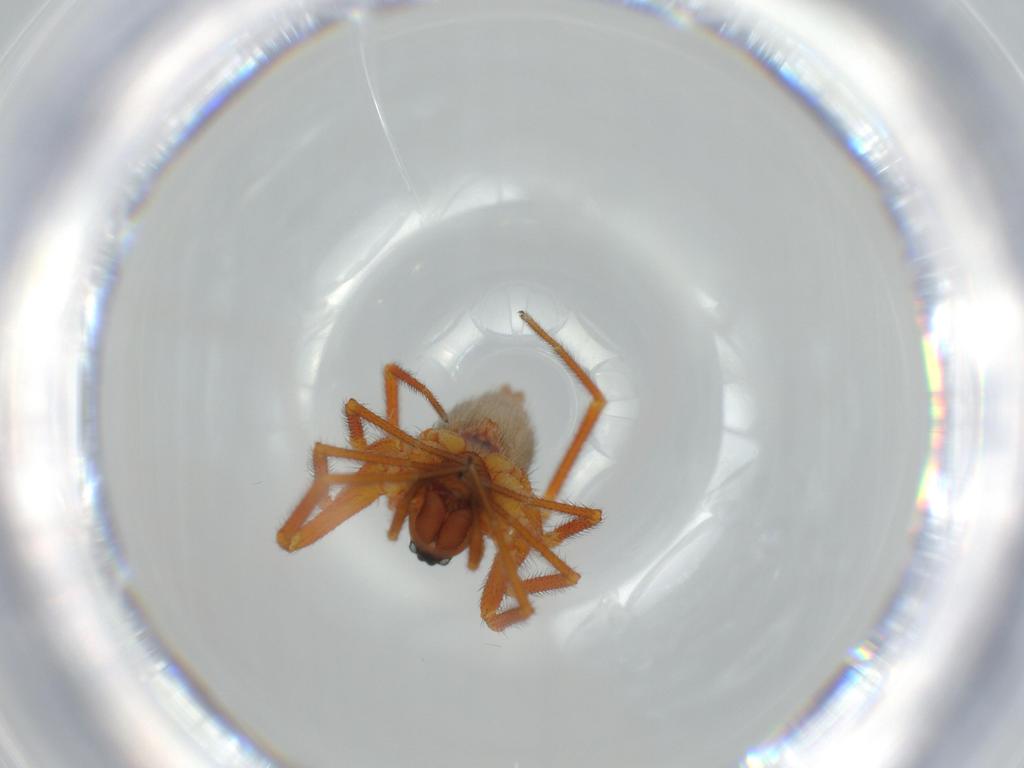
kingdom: Animalia
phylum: Arthropoda
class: Arachnida
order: Araneae
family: Linyphiidae
